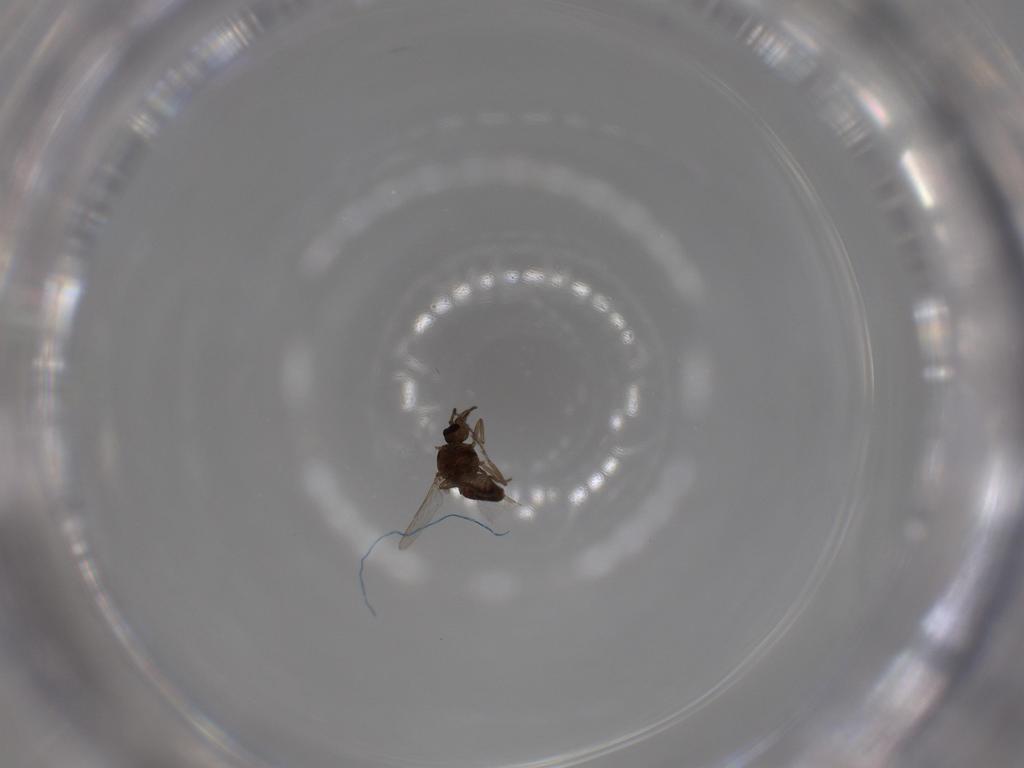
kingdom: Animalia
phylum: Arthropoda
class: Insecta
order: Diptera
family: Ceratopogonidae
